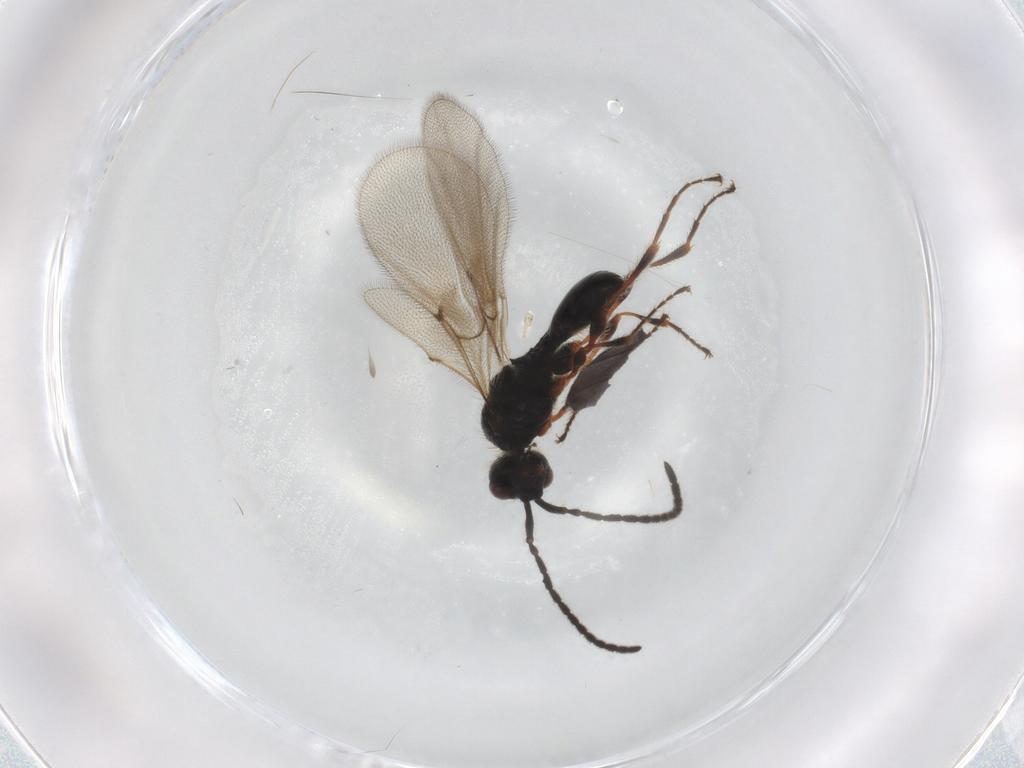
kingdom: Animalia
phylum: Arthropoda
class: Insecta
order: Hymenoptera
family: Diapriidae
